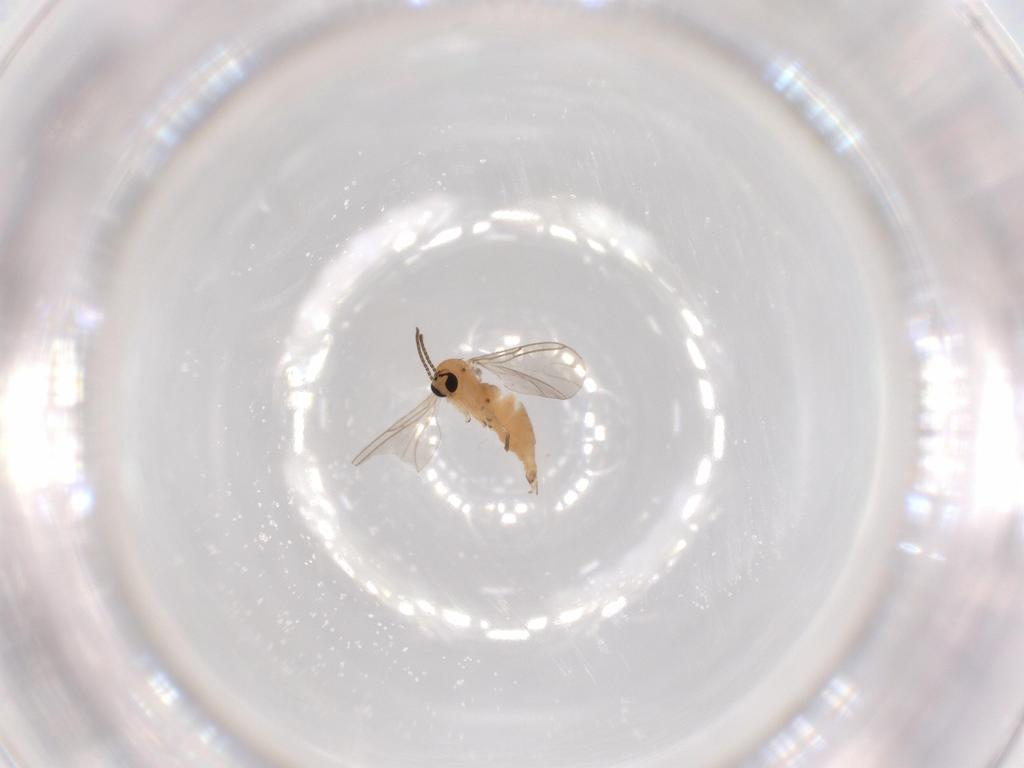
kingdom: Animalia
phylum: Arthropoda
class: Insecta
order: Diptera
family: Sciaridae
